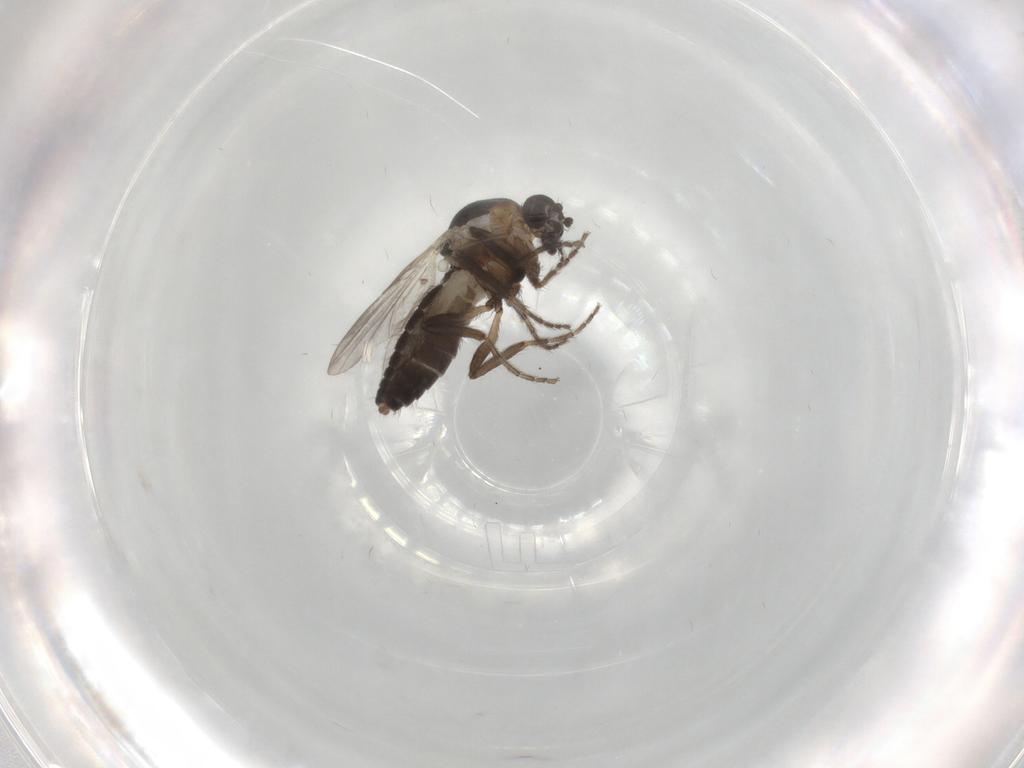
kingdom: Animalia
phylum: Arthropoda
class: Insecta
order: Diptera
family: Ceratopogonidae
